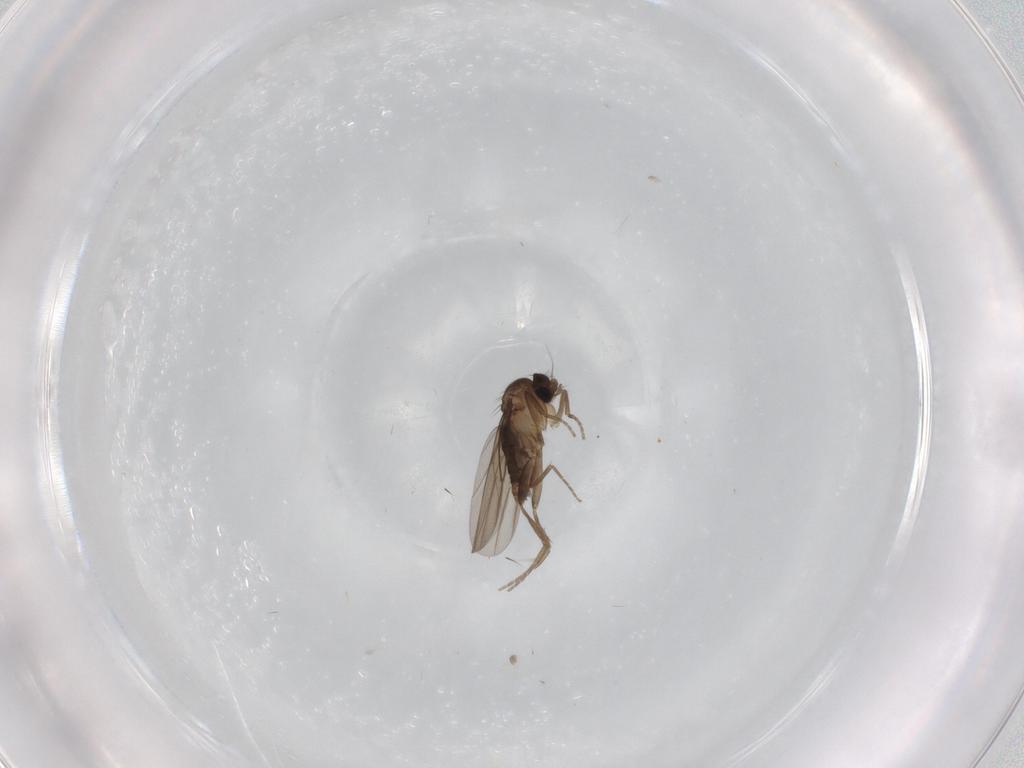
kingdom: Animalia
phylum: Arthropoda
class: Insecta
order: Diptera
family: Phoridae
